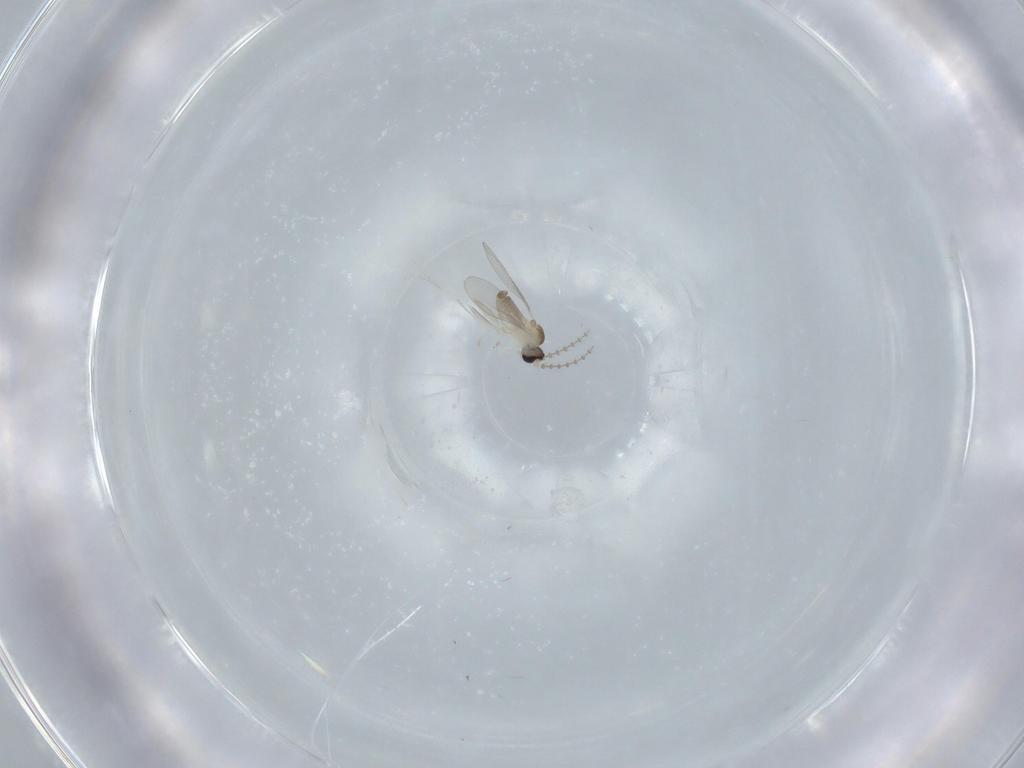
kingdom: Animalia
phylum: Arthropoda
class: Insecta
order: Diptera
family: Cecidomyiidae
